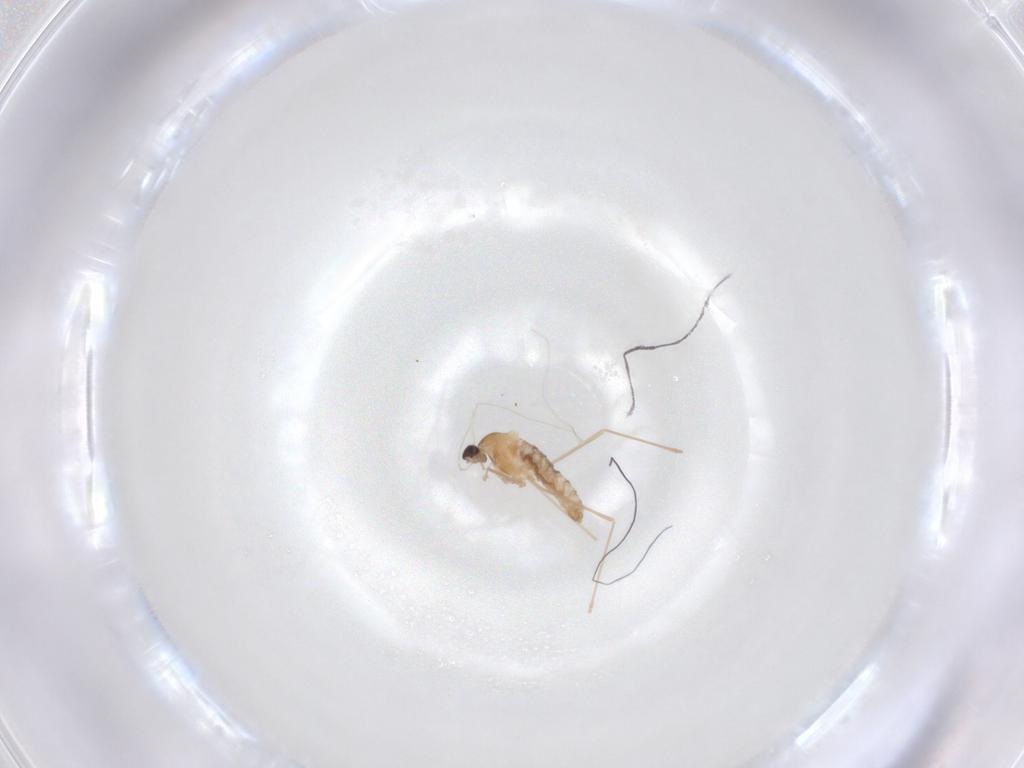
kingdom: Animalia
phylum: Arthropoda
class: Insecta
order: Diptera
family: Cecidomyiidae
